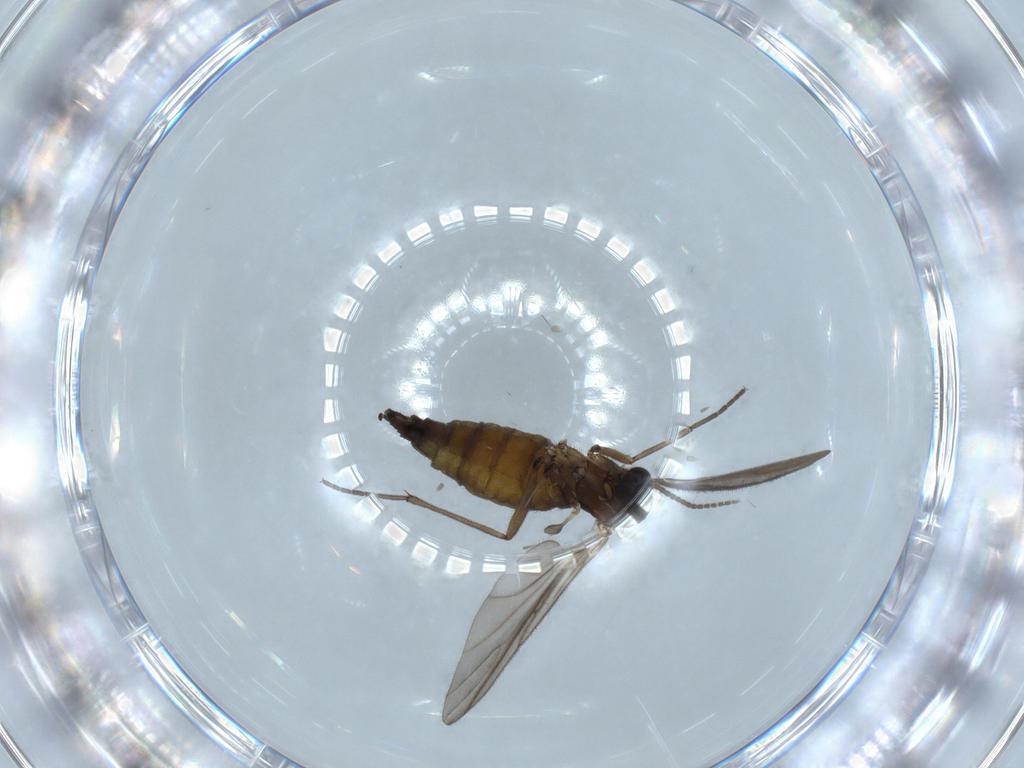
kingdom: Animalia
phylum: Arthropoda
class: Insecta
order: Diptera
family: Sciaridae
